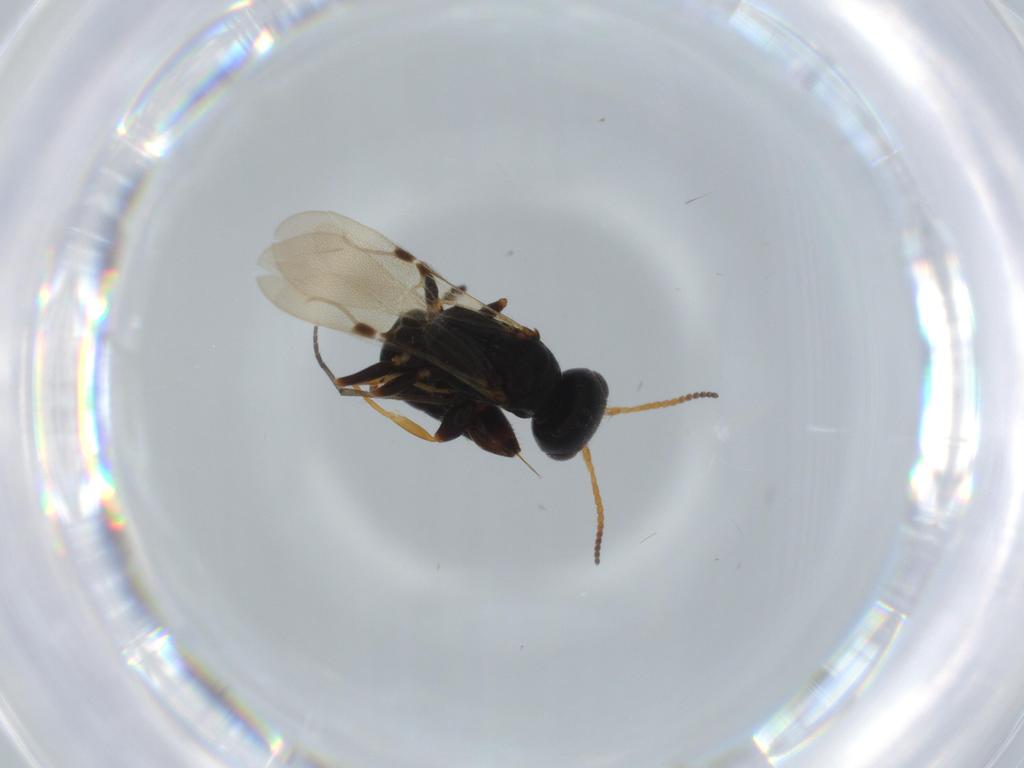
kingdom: Animalia
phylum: Arthropoda
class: Insecta
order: Hymenoptera
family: Bethylidae
